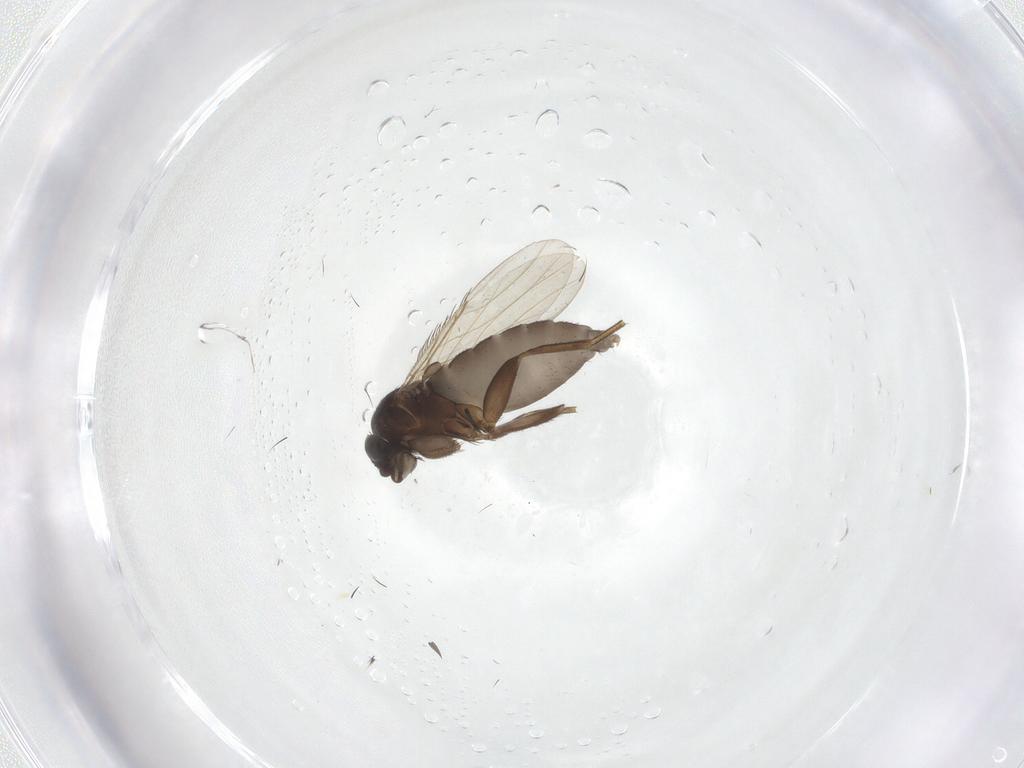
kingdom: Animalia
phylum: Arthropoda
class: Insecta
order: Diptera
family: Phoridae
